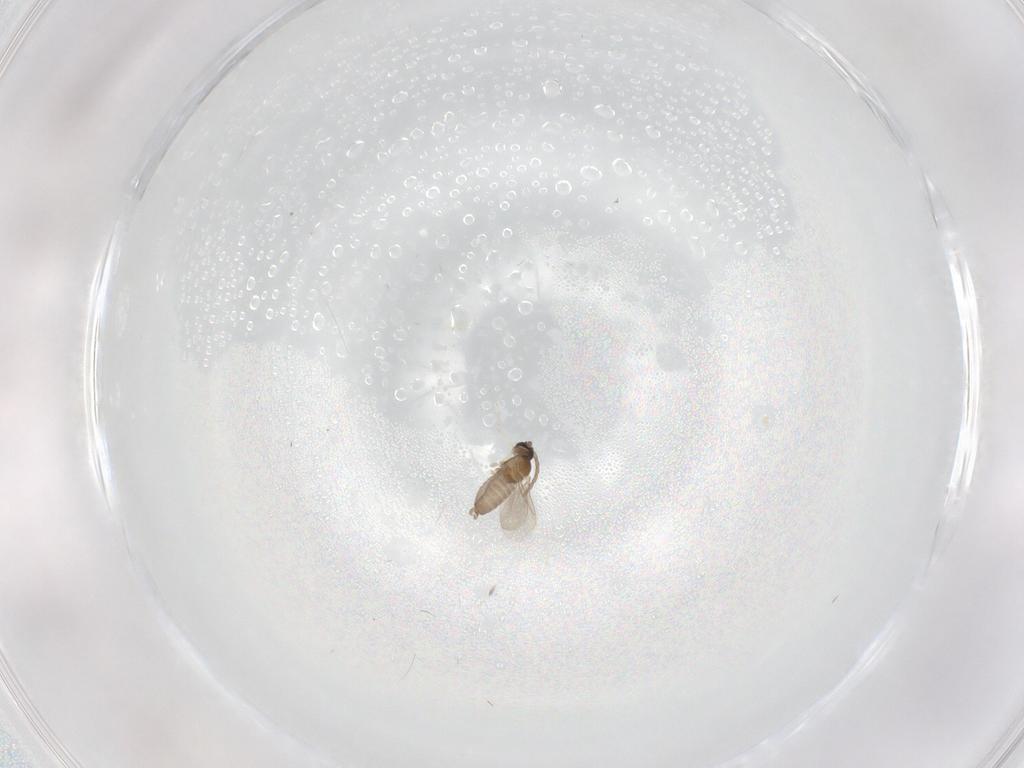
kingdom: Animalia
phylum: Arthropoda
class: Insecta
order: Diptera
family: Cecidomyiidae
